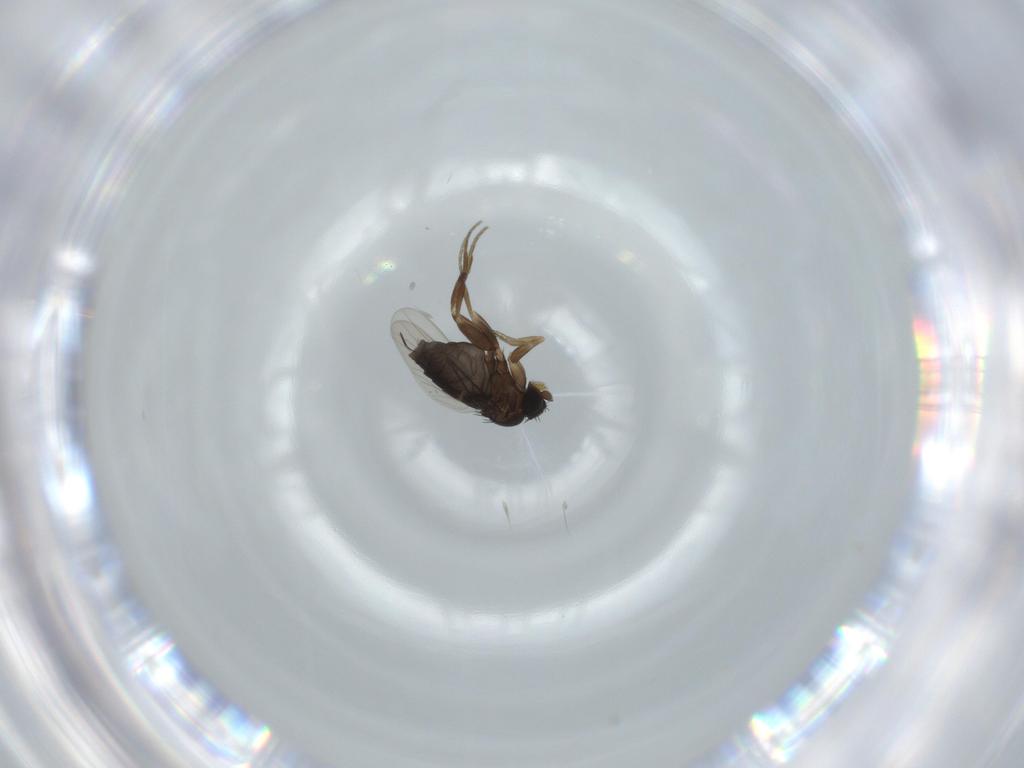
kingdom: Animalia
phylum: Arthropoda
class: Insecta
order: Diptera
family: Phoridae
